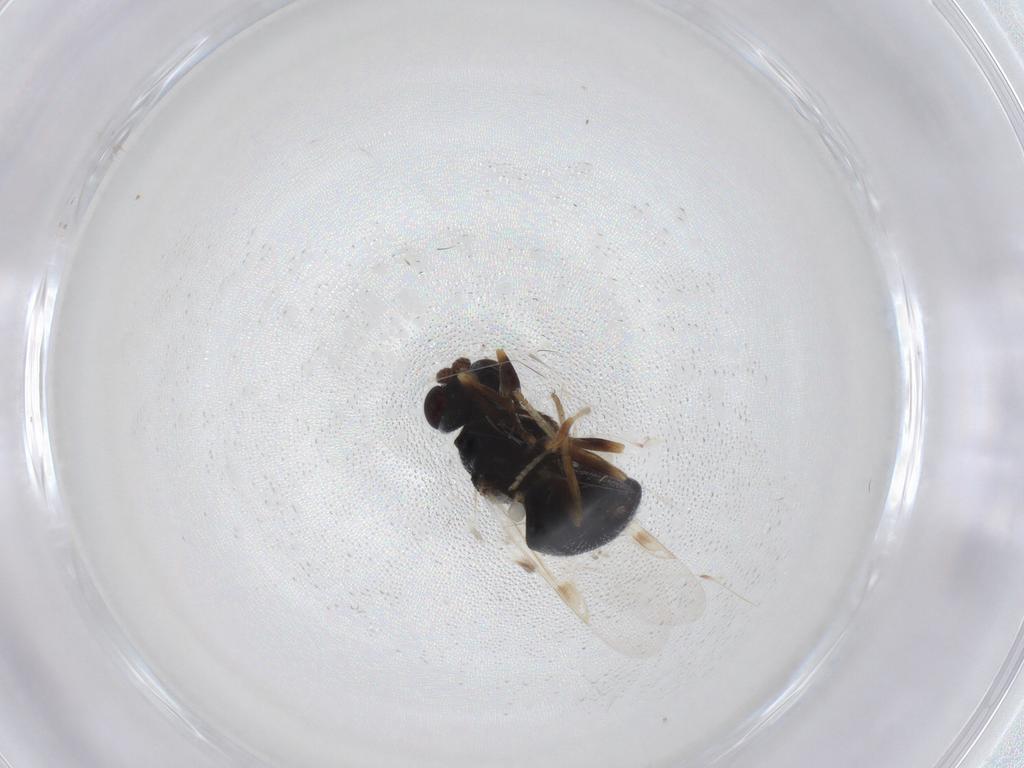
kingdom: Animalia
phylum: Arthropoda
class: Insecta
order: Diptera
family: Stratiomyidae
